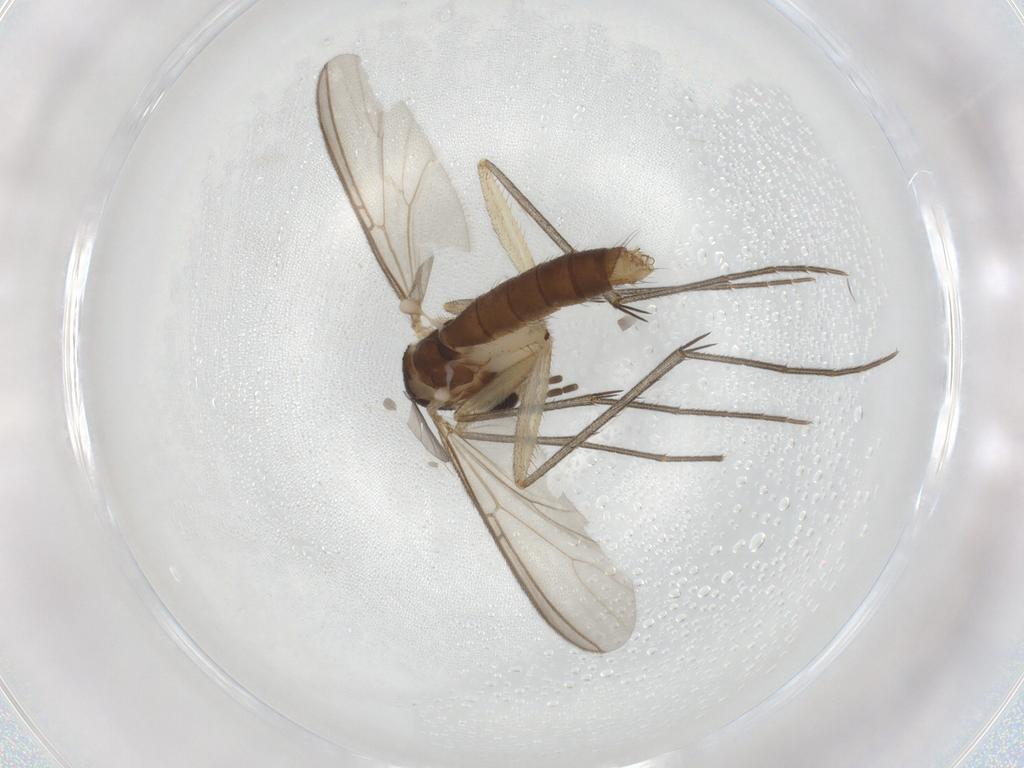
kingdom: Animalia
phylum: Arthropoda
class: Insecta
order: Diptera
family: Mycetophilidae
